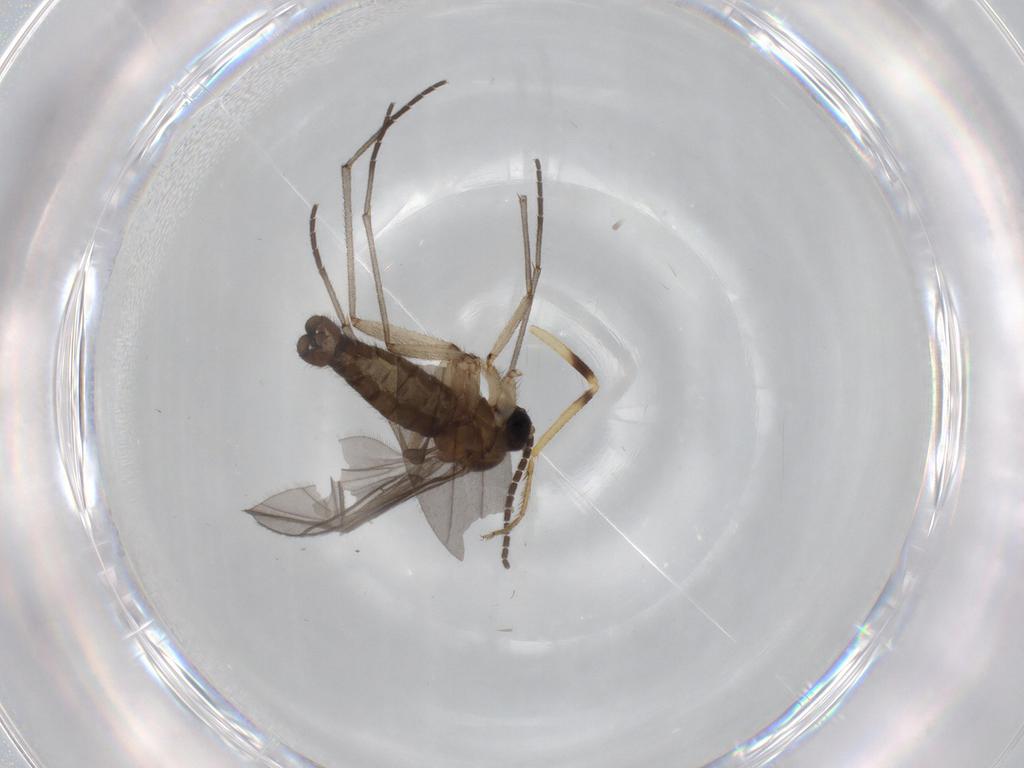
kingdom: Animalia
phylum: Arthropoda
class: Insecta
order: Diptera
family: Sciaridae
